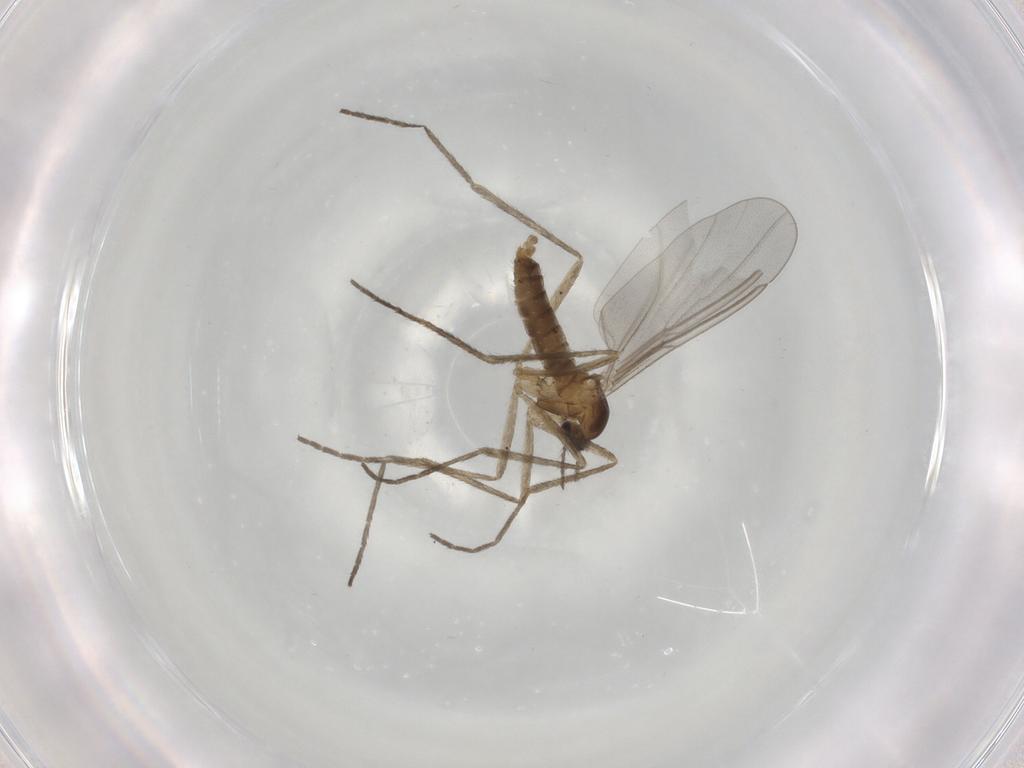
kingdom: Animalia
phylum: Arthropoda
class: Insecta
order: Diptera
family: Cecidomyiidae
